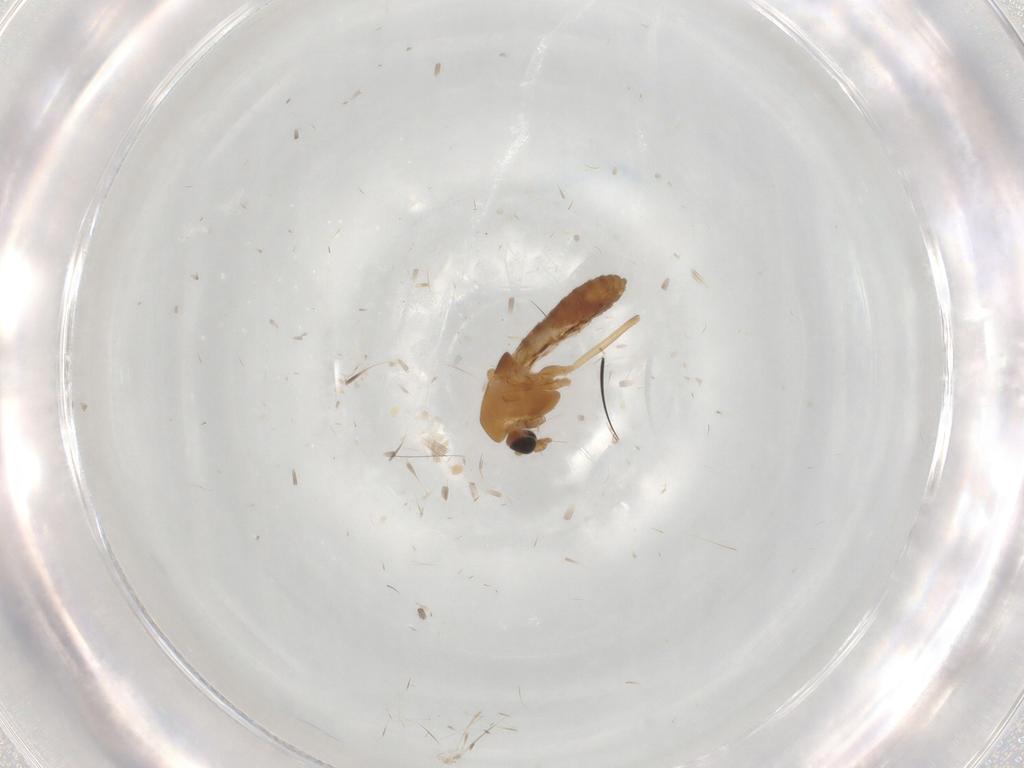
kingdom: Animalia
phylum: Arthropoda
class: Insecta
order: Diptera
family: Chironomidae
